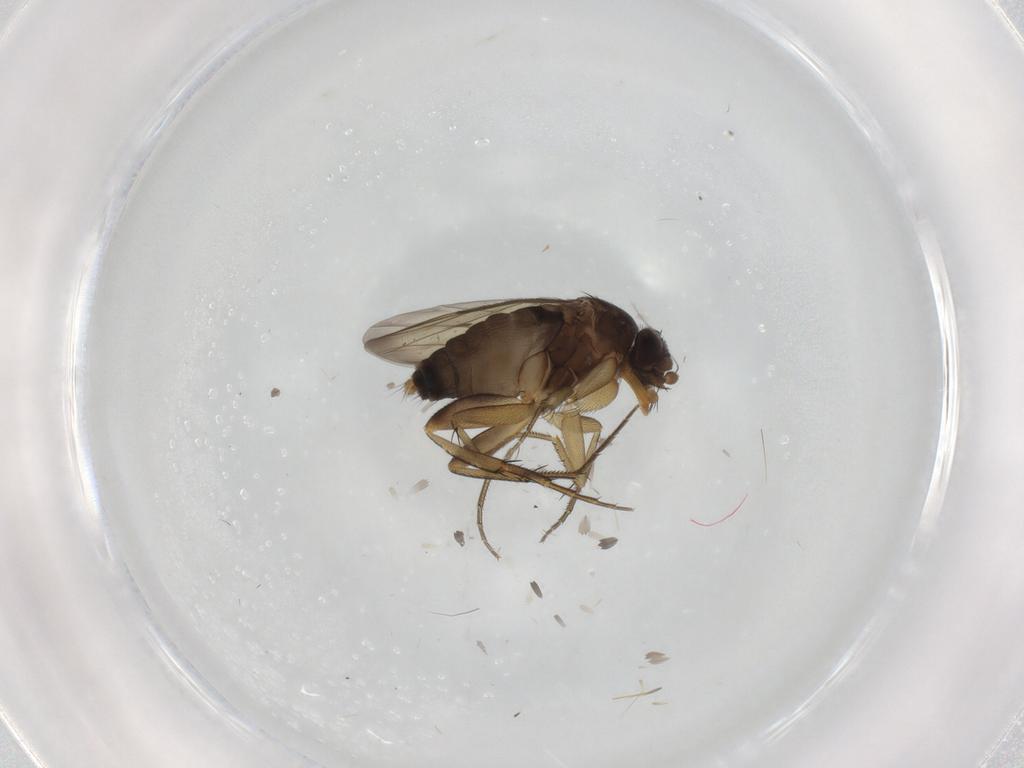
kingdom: Animalia
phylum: Arthropoda
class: Insecta
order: Diptera
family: Phoridae
